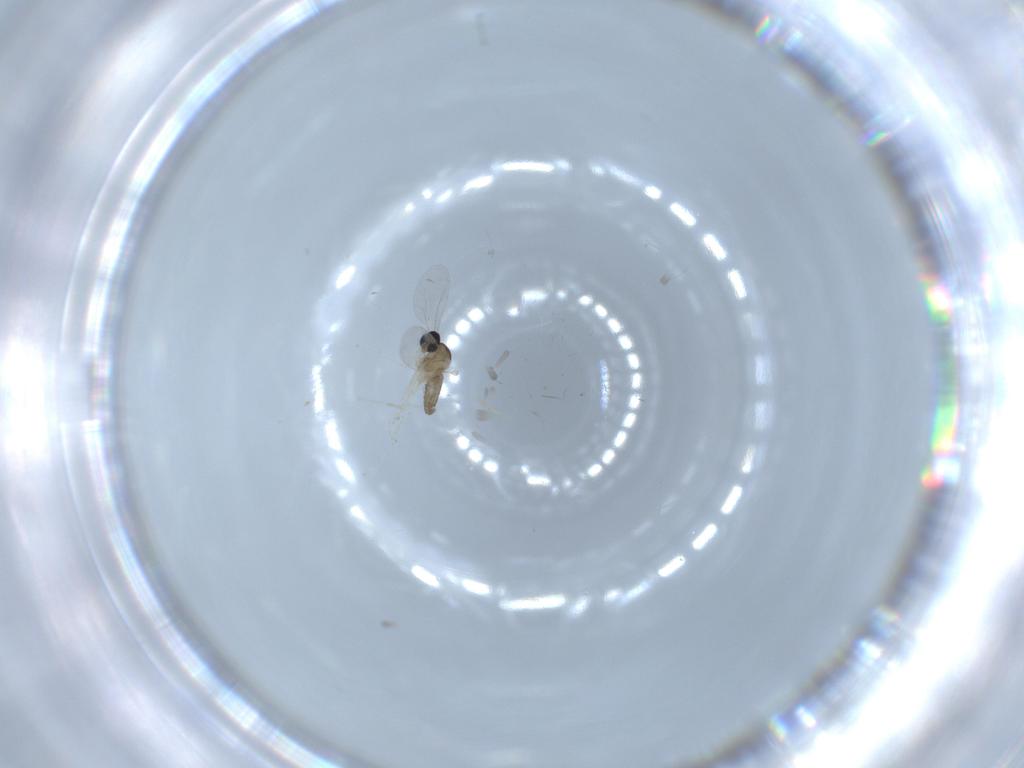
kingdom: Animalia
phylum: Arthropoda
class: Insecta
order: Diptera
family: Cecidomyiidae
